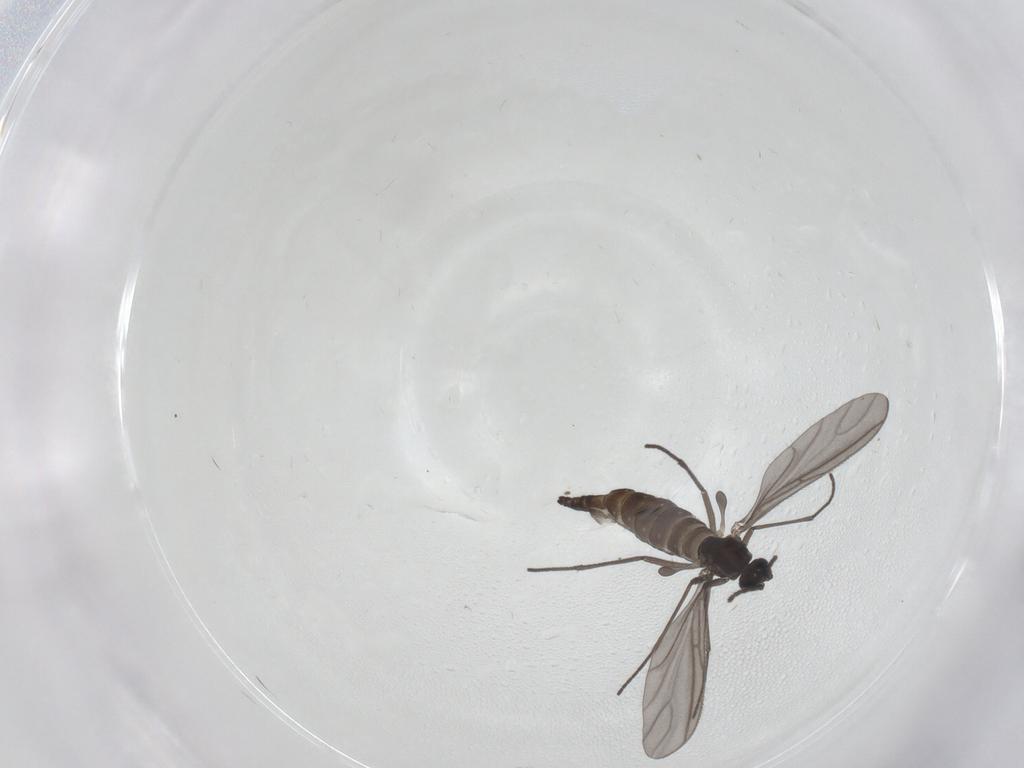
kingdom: Animalia
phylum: Arthropoda
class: Insecta
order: Diptera
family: Sciaridae
